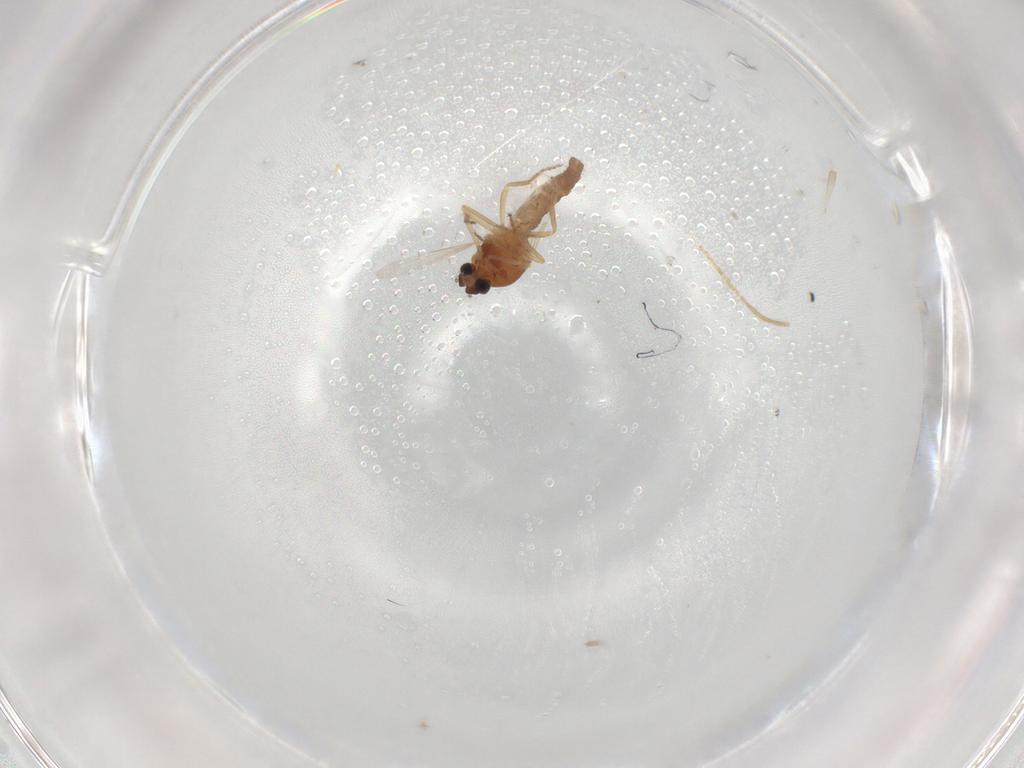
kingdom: Animalia
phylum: Arthropoda
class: Insecta
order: Diptera
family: Ceratopogonidae
